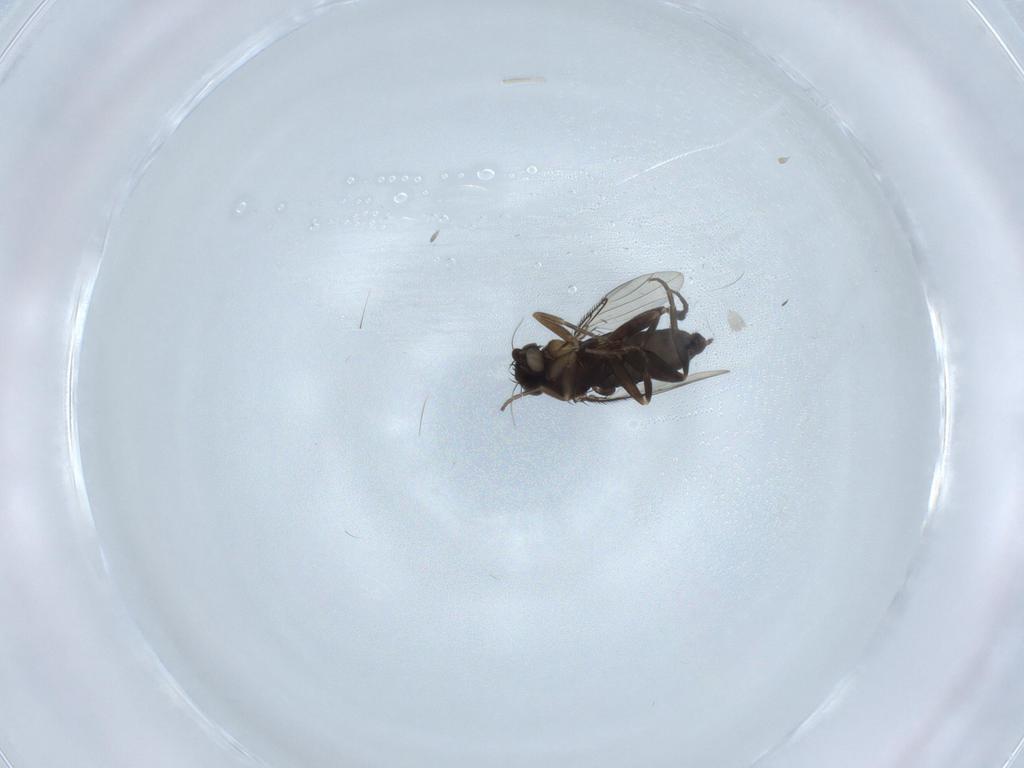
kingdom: Animalia
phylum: Arthropoda
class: Insecta
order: Diptera
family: Phoridae
